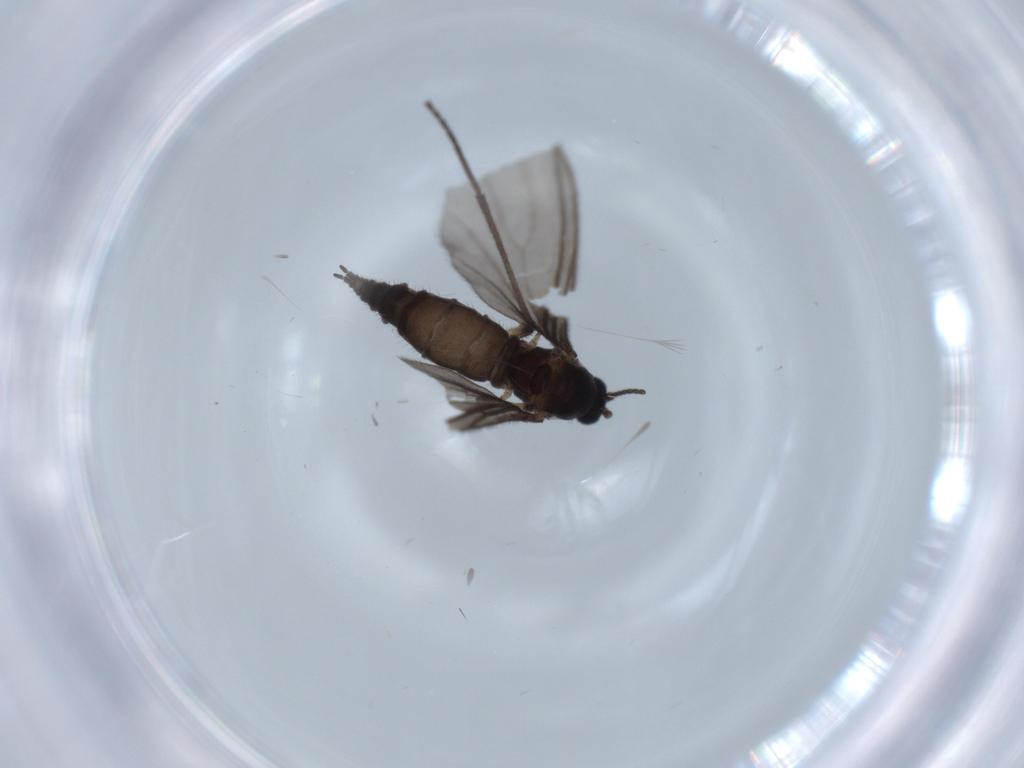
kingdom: Animalia
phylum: Arthropoda
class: Insecta
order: Diptera
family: Sciaridae
